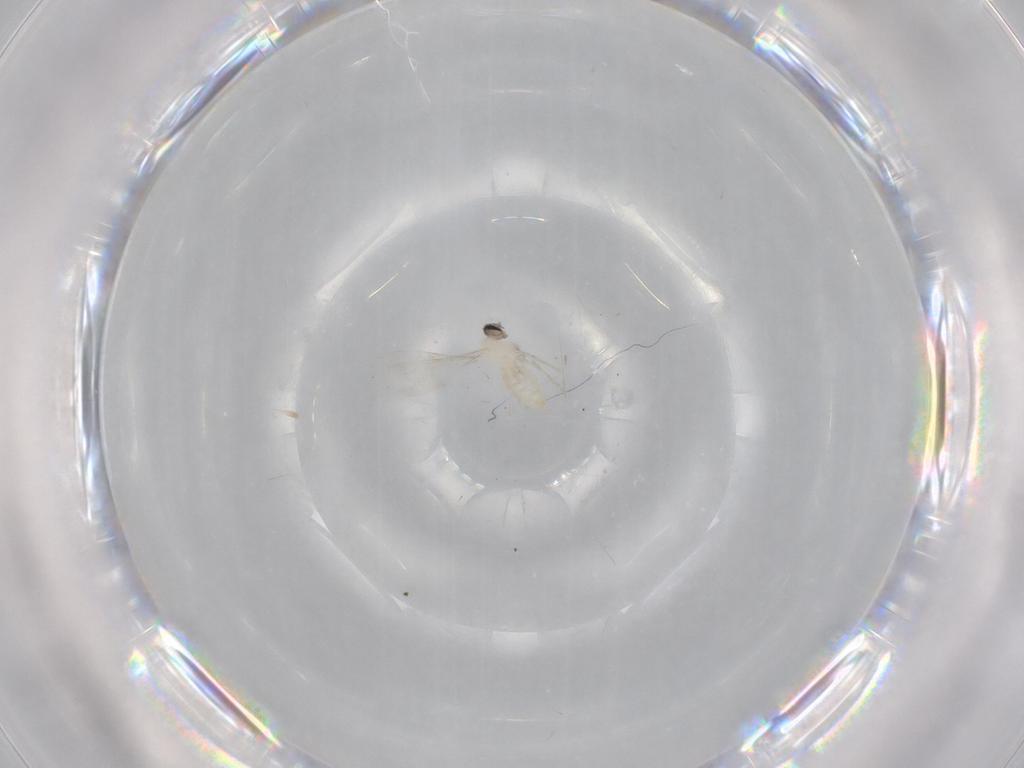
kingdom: Animalia
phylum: Arthropoda
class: Insecta
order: Diptera
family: Cecidomyiidae
